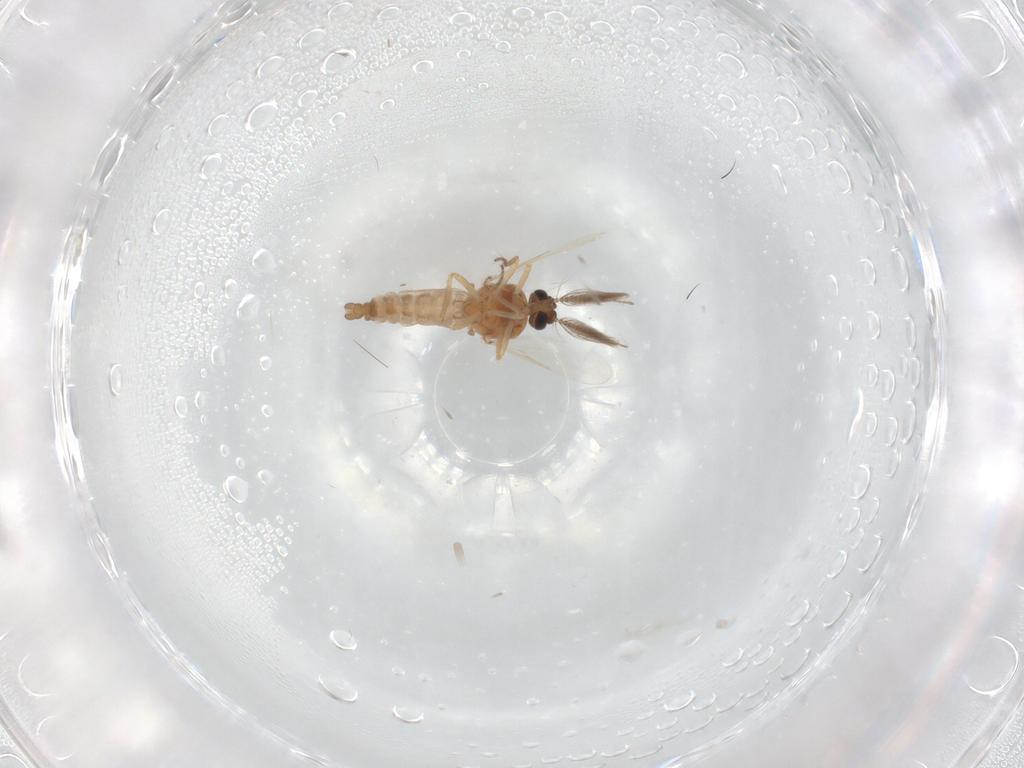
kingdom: Animalia
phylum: Arthropoda
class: Insecta
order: Diptera
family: Ceratopogonidae
